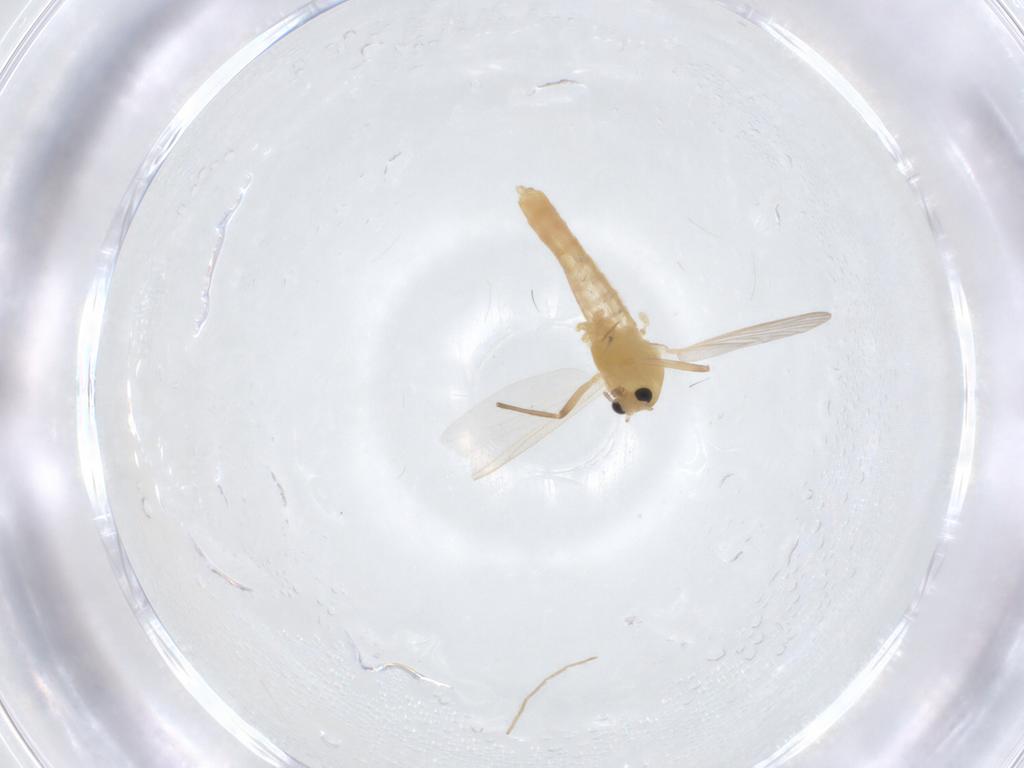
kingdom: Animalia
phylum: Arthropoda
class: Insecta
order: Diptera
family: Chironomidae
